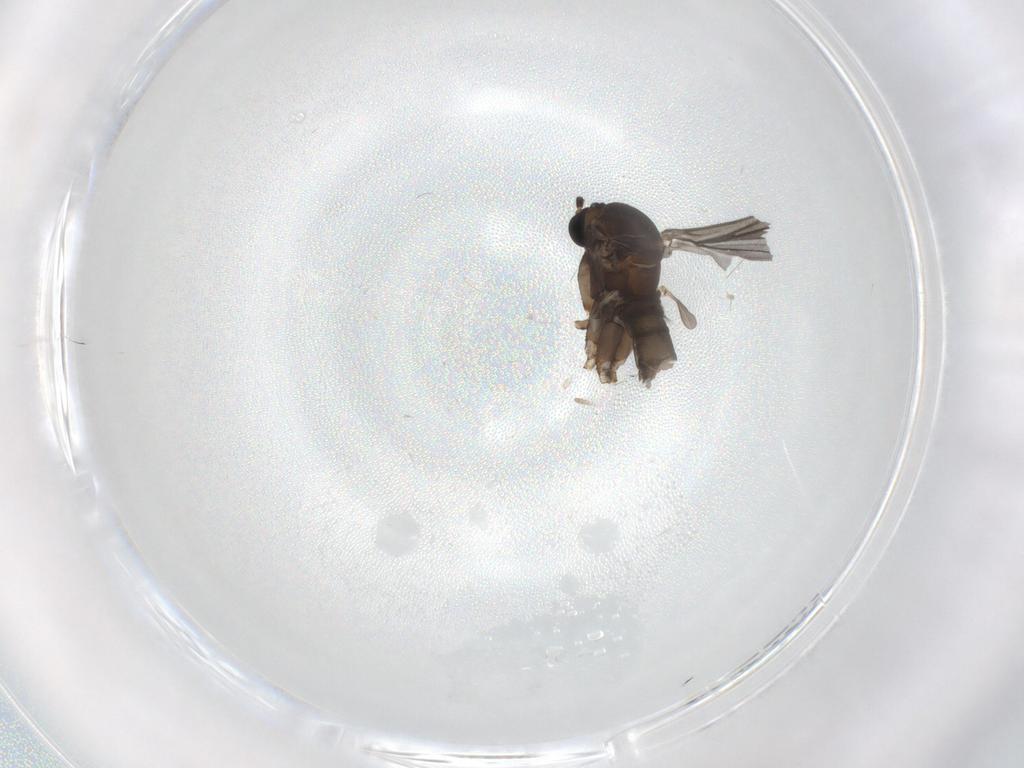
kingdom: Animalia
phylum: Arthropoda
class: Insecta
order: Diptera
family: Sciaridae
